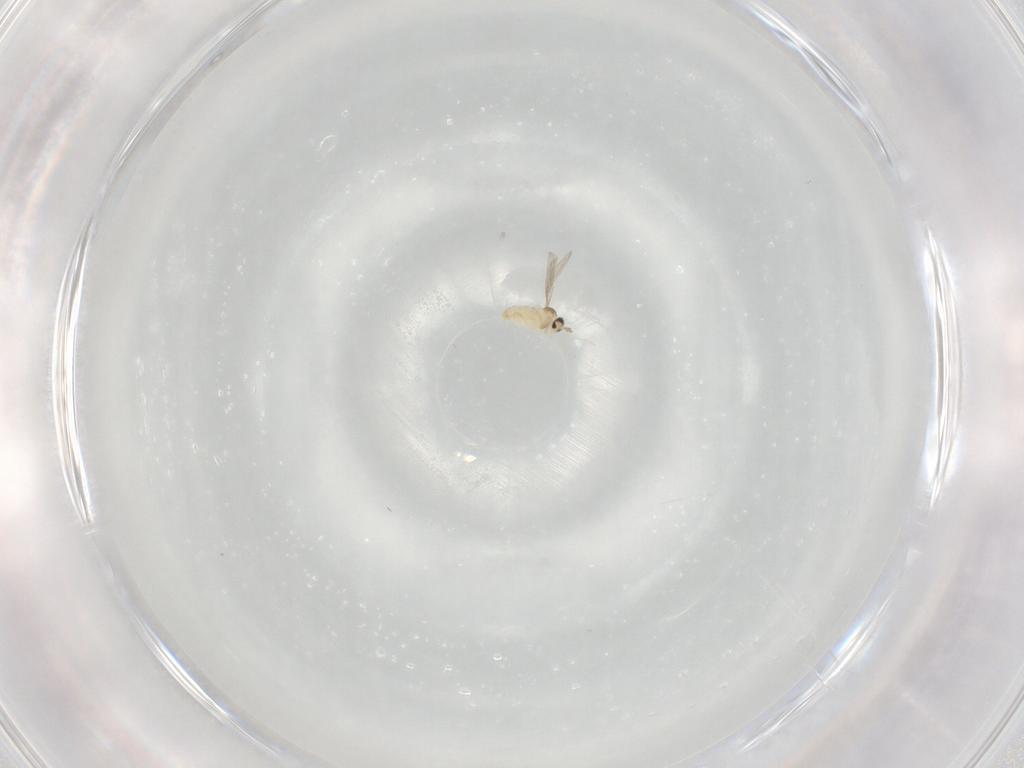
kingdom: Animalia
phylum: Arthropoda
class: Insecta
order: Diptera
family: Cecidomyiidae
